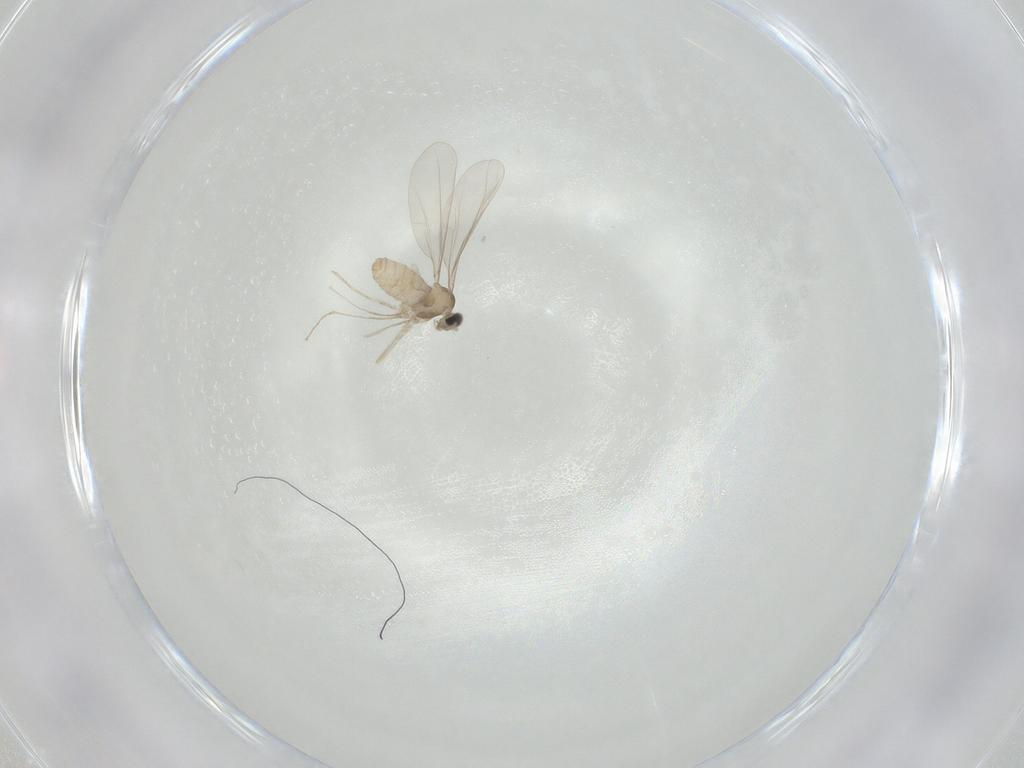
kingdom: Animalia
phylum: Arthropoda
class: Insecta
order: Diptera
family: Cecidomyiidae
